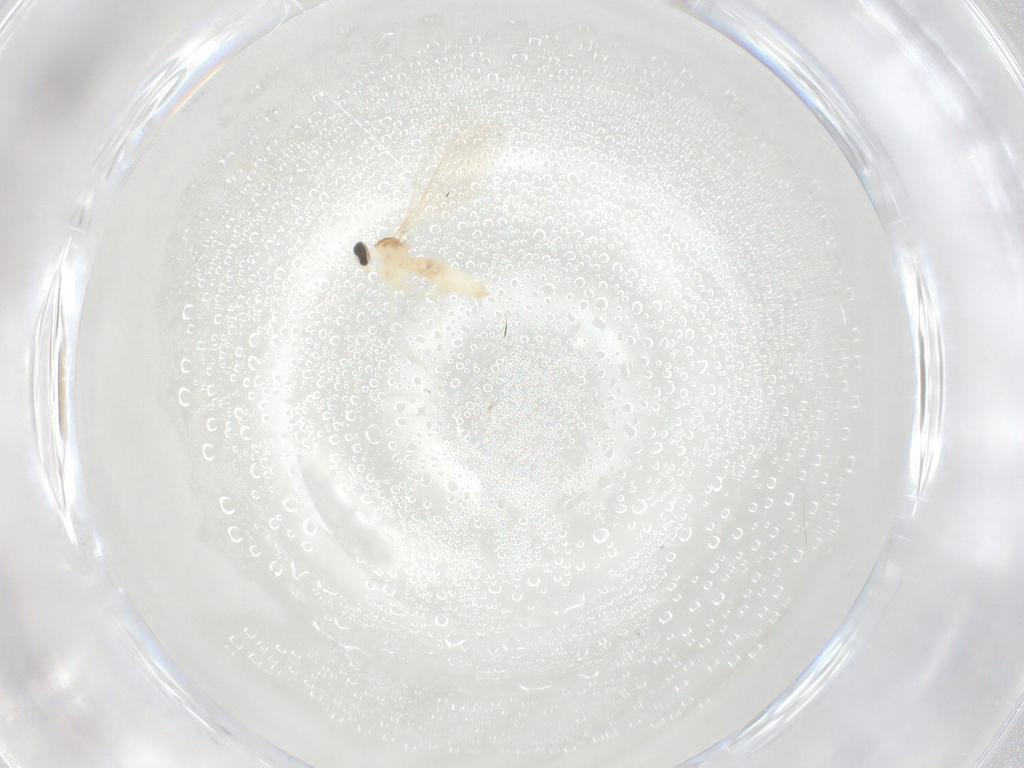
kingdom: Animalia
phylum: Arthropoda
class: Insecta
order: Diptera
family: Cecidomyiidae
